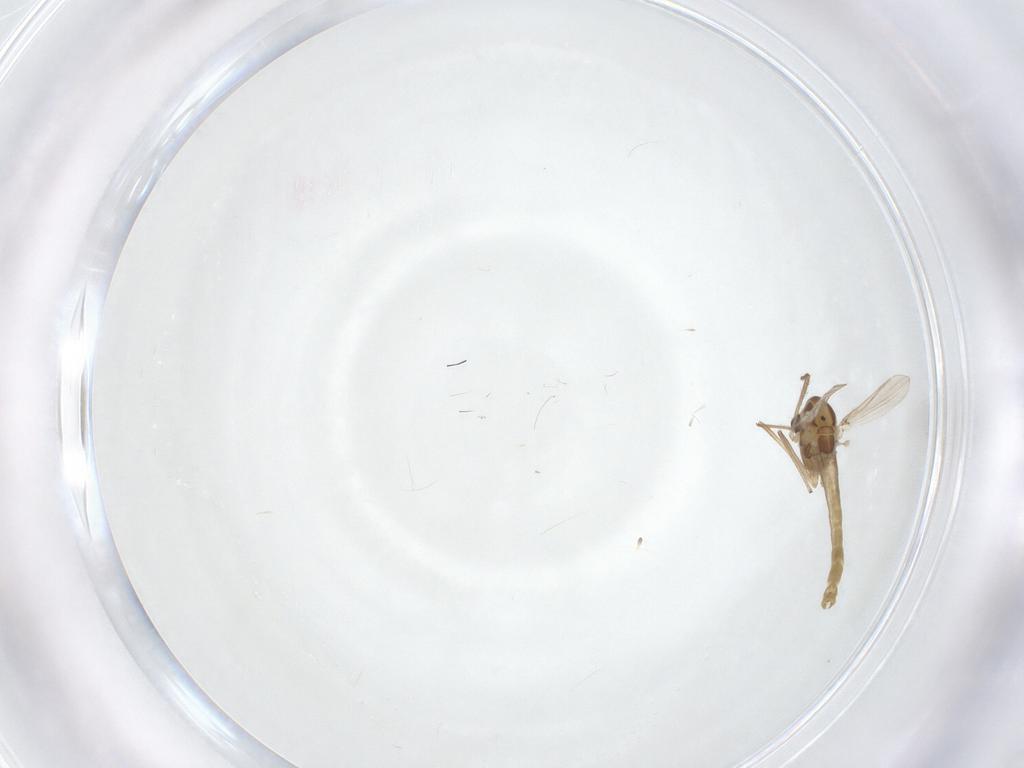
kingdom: Animalia
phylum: Arthropoda
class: Insecta
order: Diptera
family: Chironomidae
